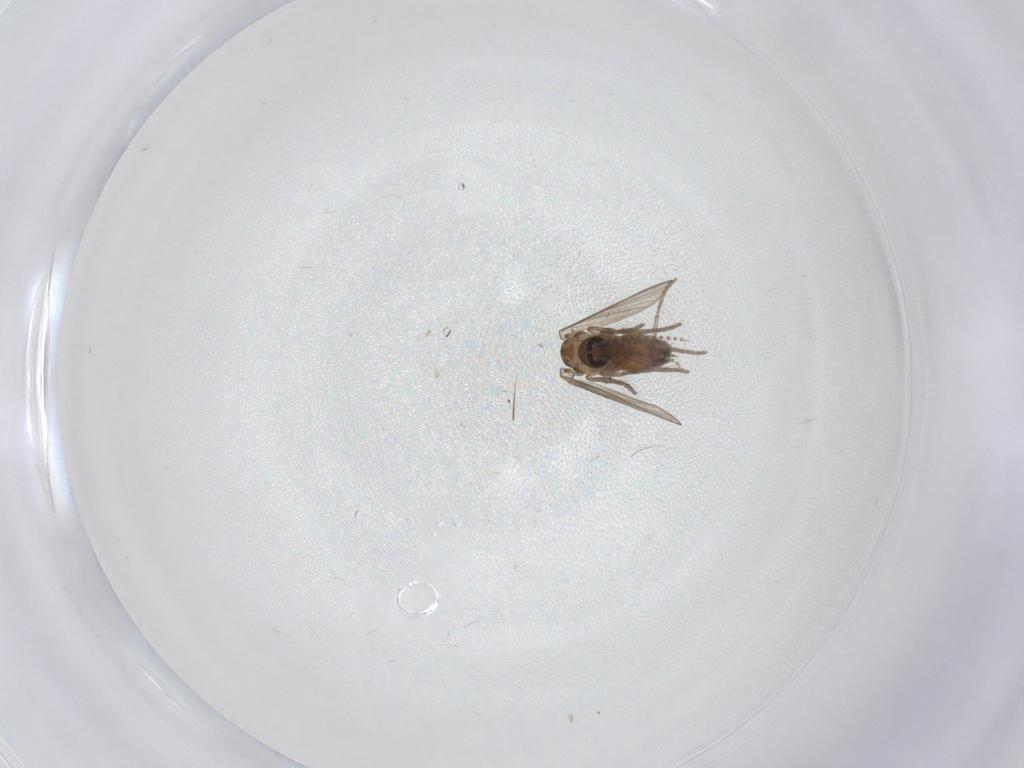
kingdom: Animalia
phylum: Arthropoda
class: Insecta
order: Diptera
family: Psychodidae
